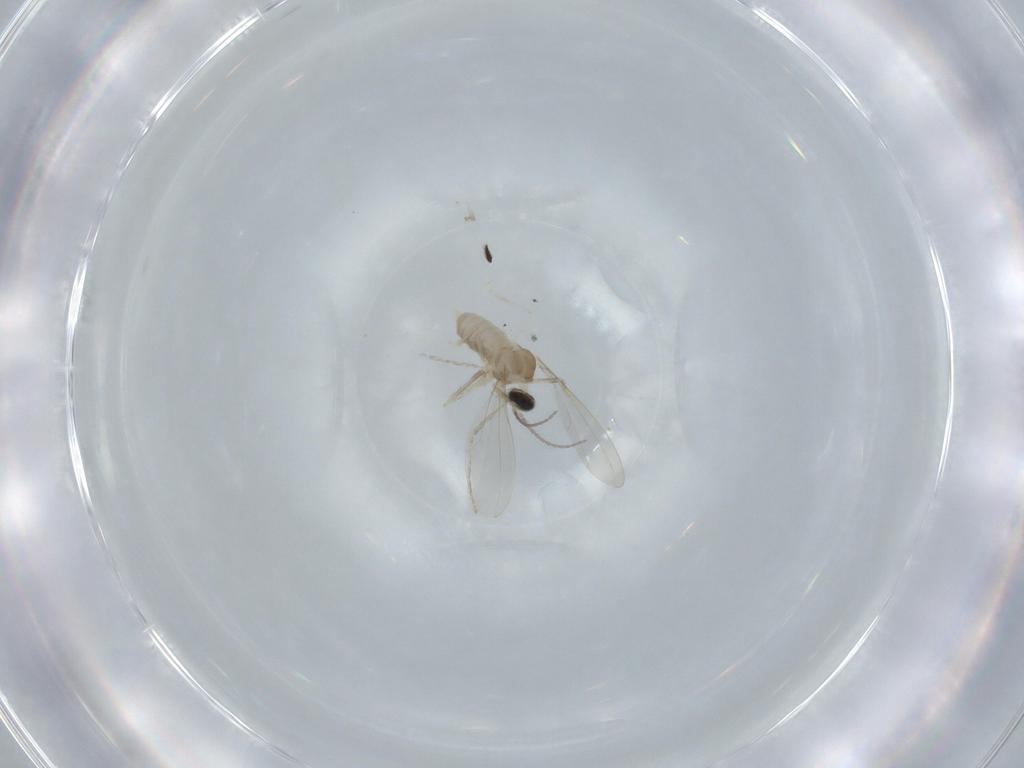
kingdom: Animalia
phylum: Arthropoda
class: Insecta
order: Diptera
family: Cecidomyiidae
